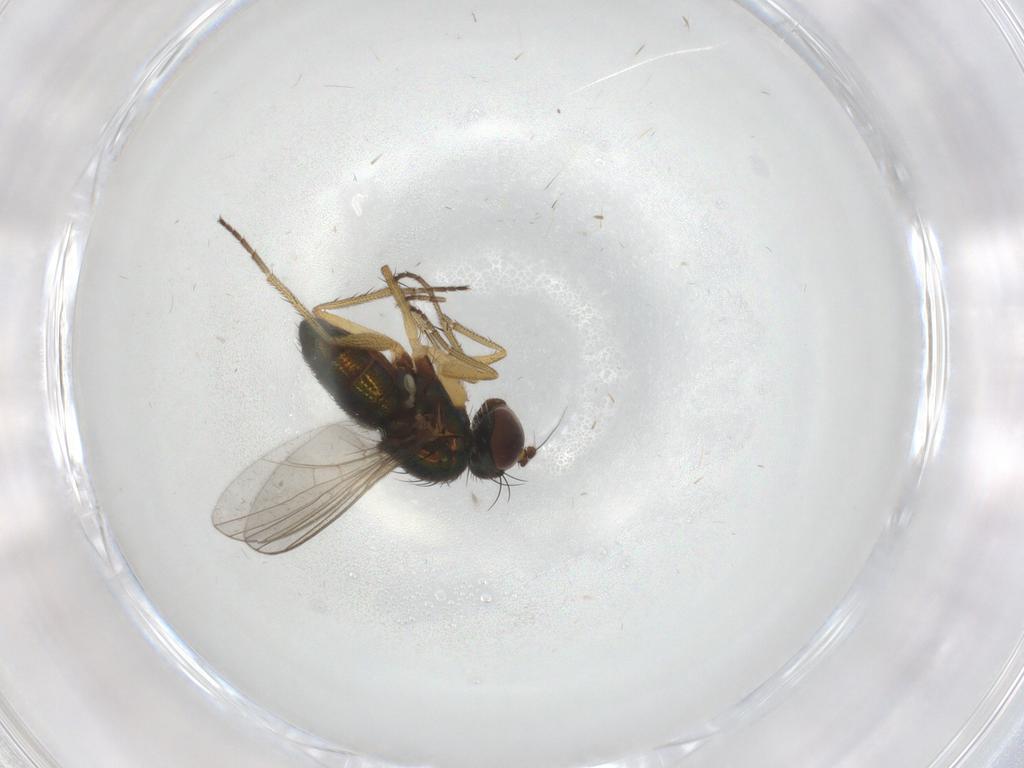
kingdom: Animalia
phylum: Arthropoda
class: Insecta
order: Diptera
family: Dolichopodidae
